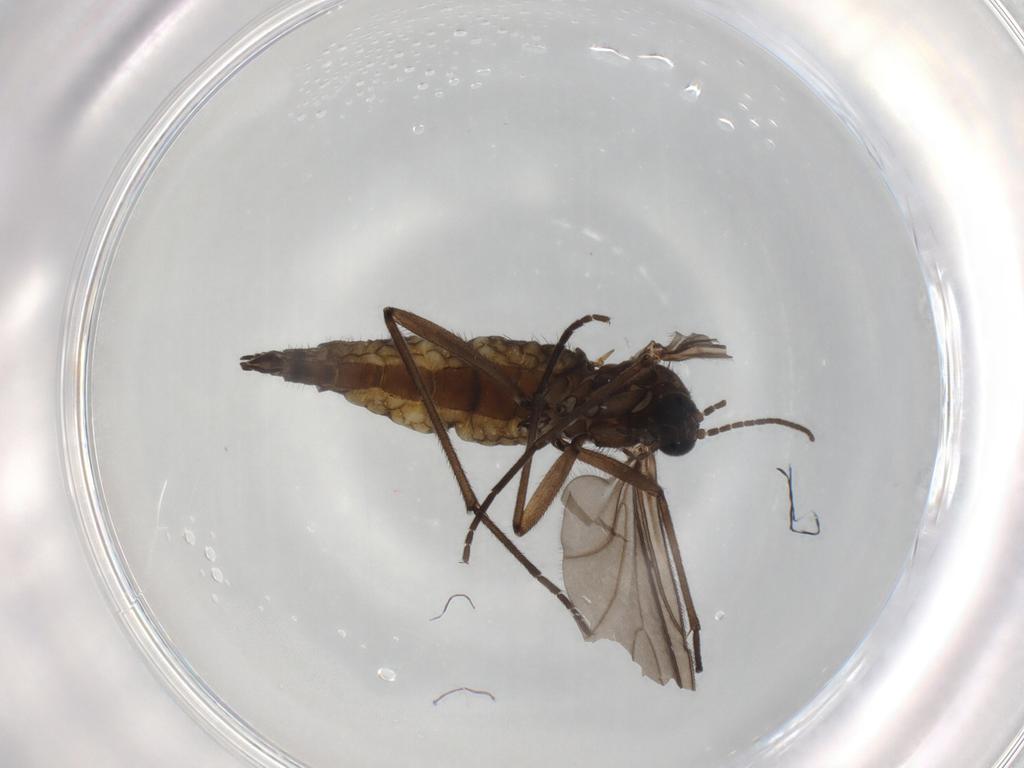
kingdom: Animalia
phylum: Arthropoda
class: Insecta
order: Diptera
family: Sciaridae
